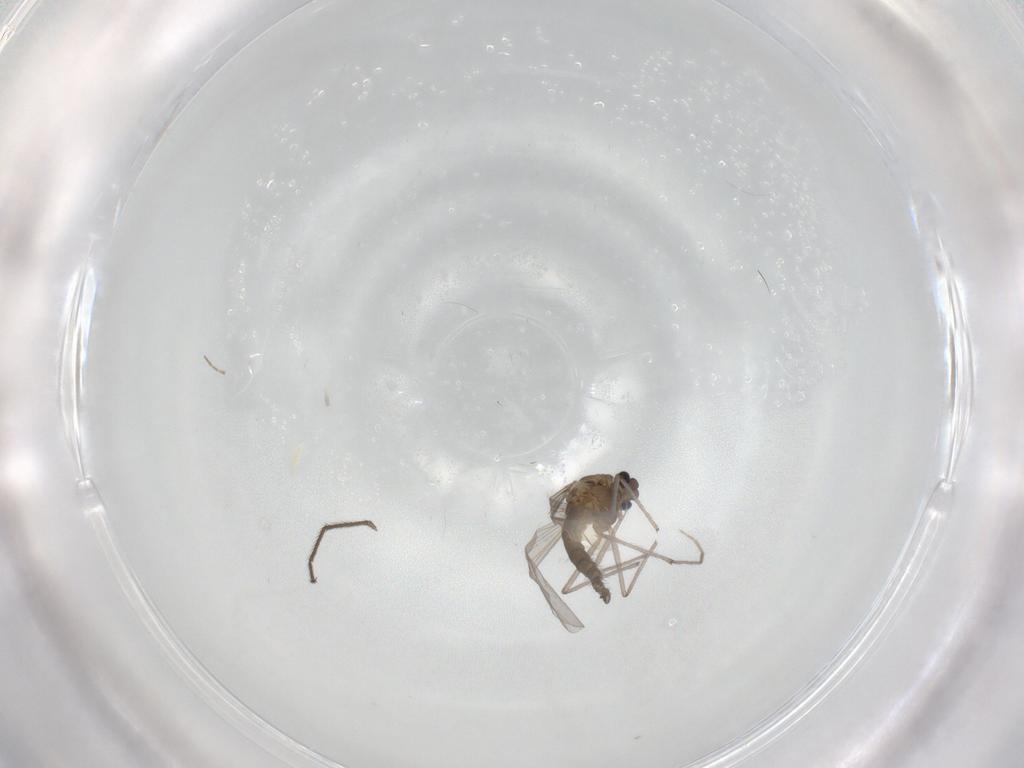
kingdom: Animalia
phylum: Arthropoda
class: Insecta
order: Diptera
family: Chironomidae
